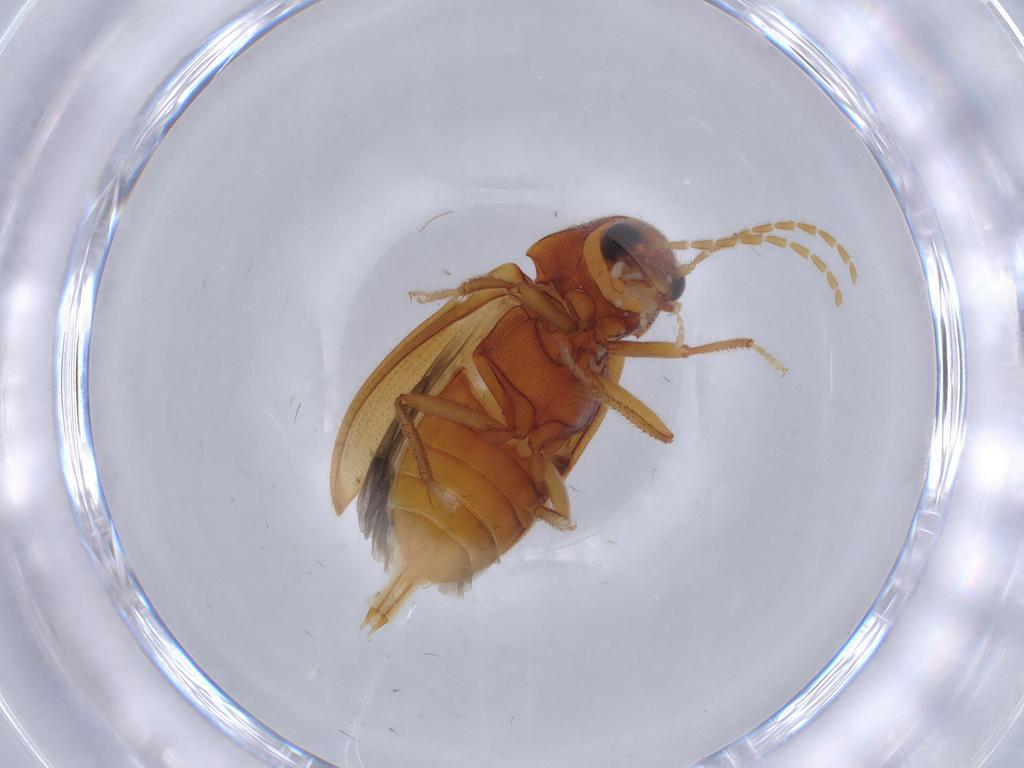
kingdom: Animalia
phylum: Arthropoda
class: Insecta
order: Coleoptera
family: Ptilodactylidae
